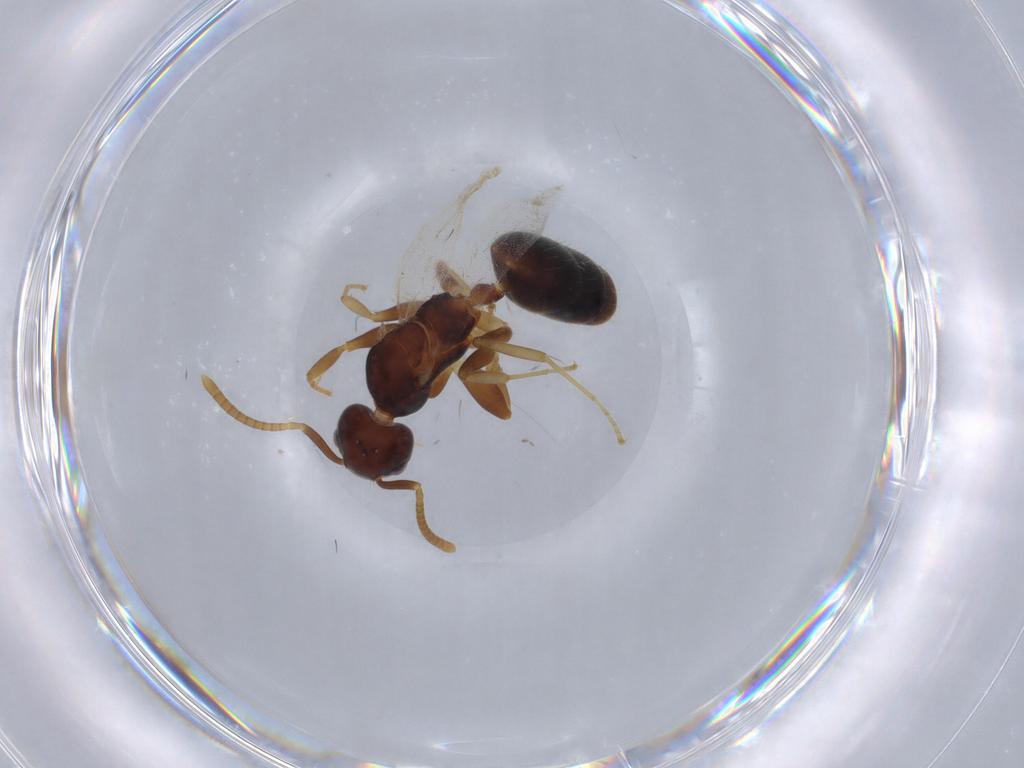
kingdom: Animalia
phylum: Arthropoda
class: Insecta
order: Hymenoptera
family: Formicidae
